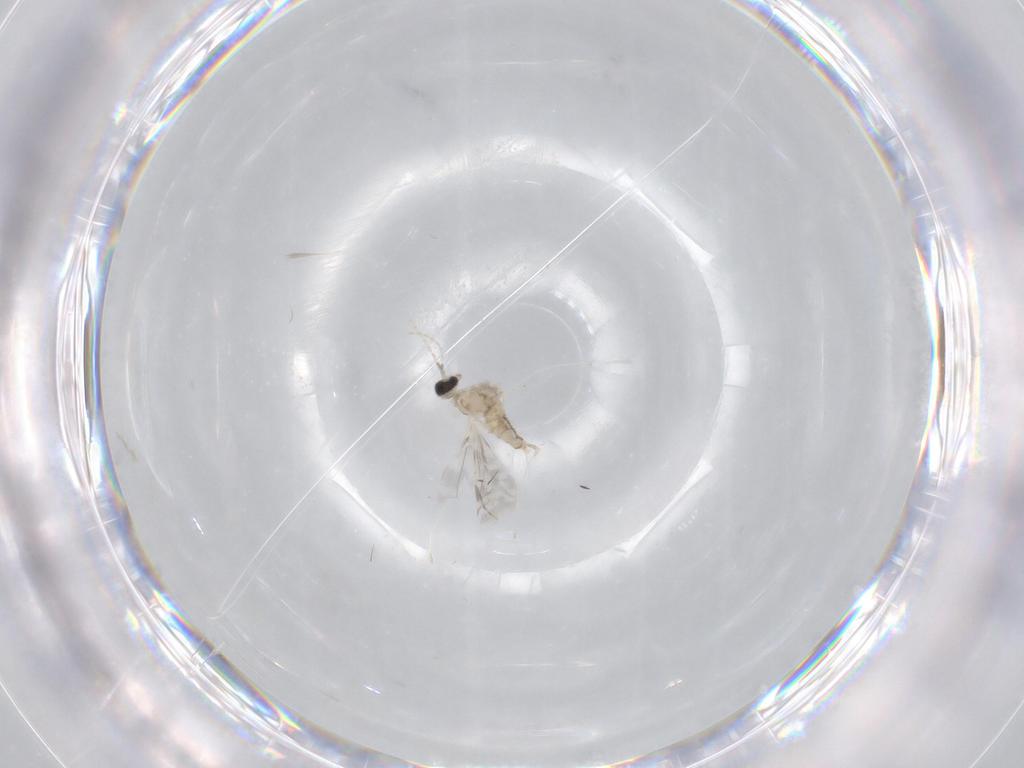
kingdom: Animalia
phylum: Arthropoda
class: Insecta
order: Diptera
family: Cecidomyiidae
